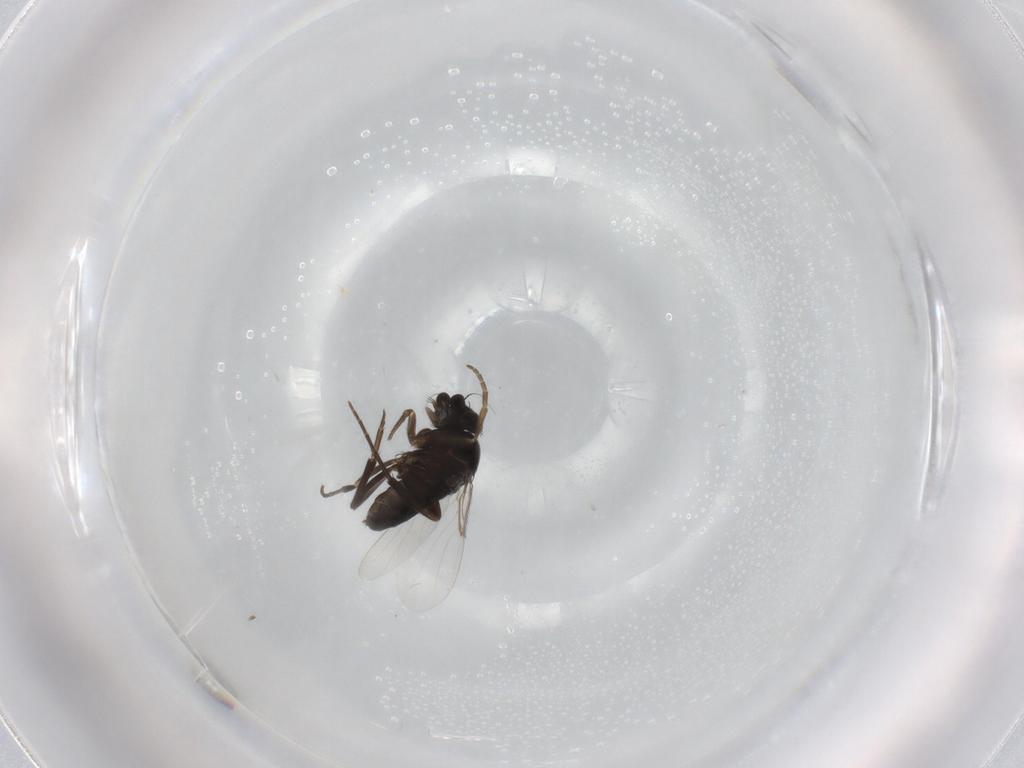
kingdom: Animalia
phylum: Arthropoda
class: Insecta
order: Diptera
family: Phoridae
